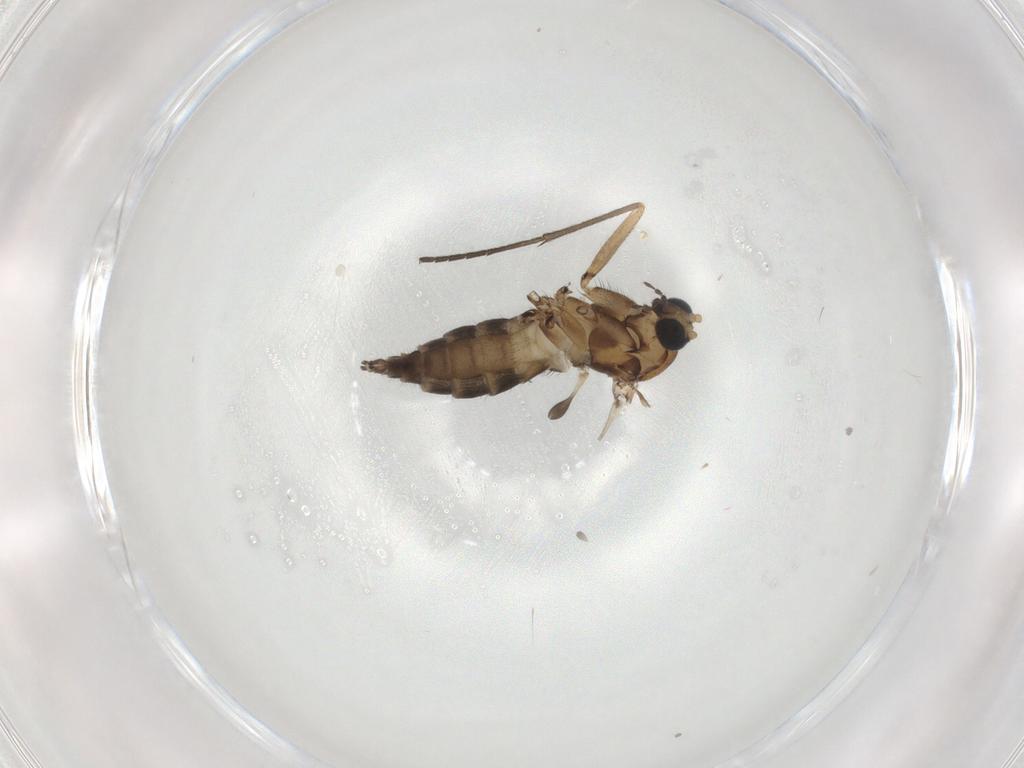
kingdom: Animalia
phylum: Arthropoda
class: Insecta
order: Diptera
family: Sciaridae
